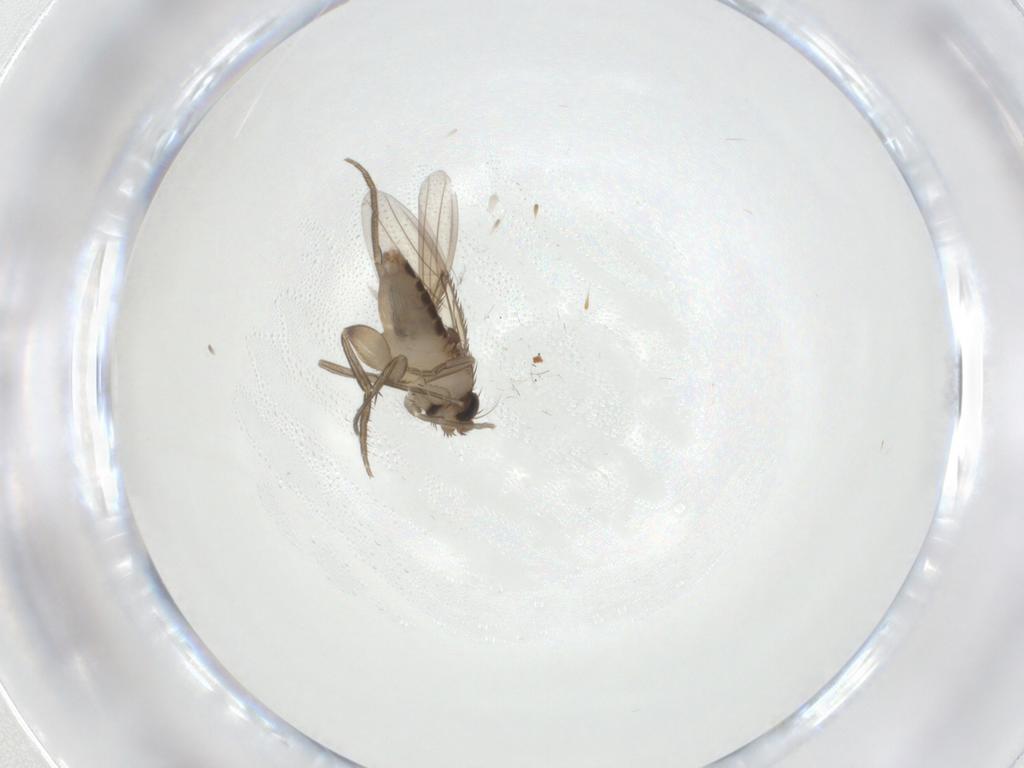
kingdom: Animalia
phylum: Arthropoda
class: Insecta
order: Diptera
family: Phoridae
